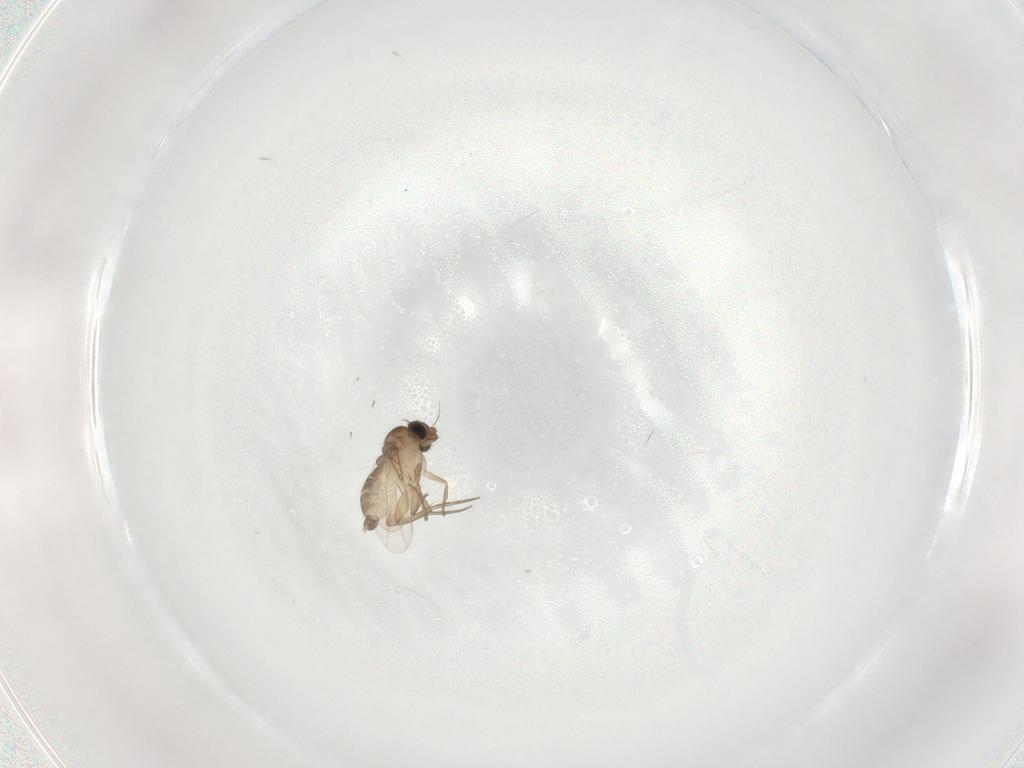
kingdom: Animalia
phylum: Arthropoda
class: Insecta
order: Diptera
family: Phoridae
